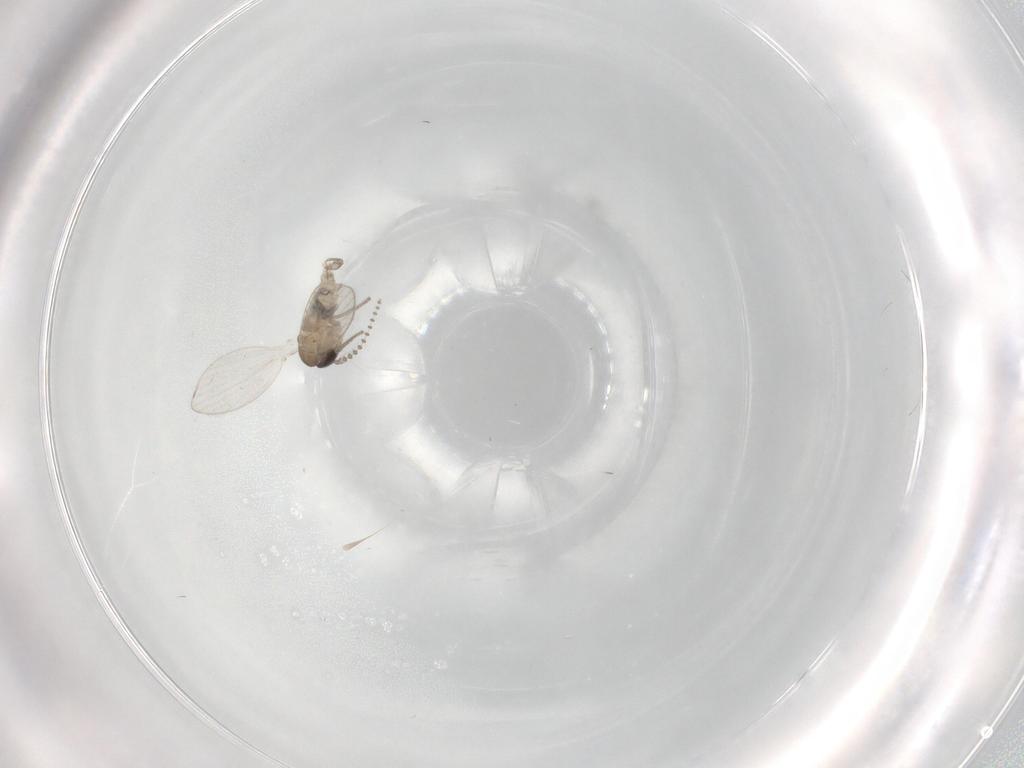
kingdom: Animalia
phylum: Arthropoda
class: Insecta
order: Diptera
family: Psychodidae
